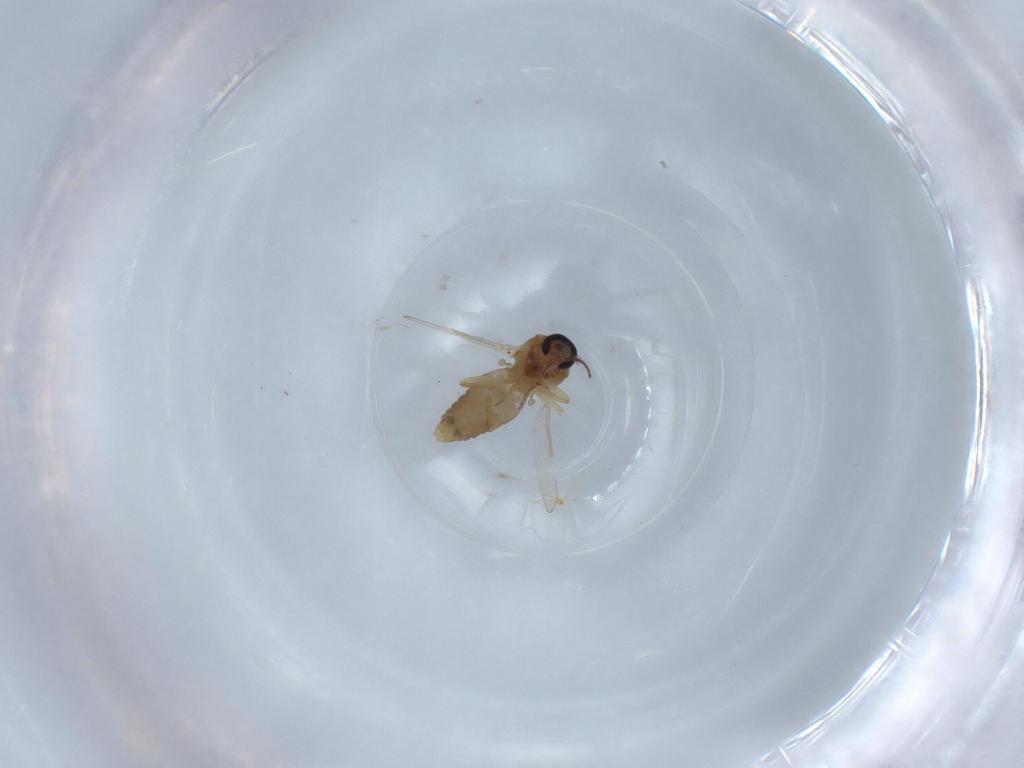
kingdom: Animalia
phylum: Arthropoda
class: Insecta
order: Diptera
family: Ceratopogonidae
